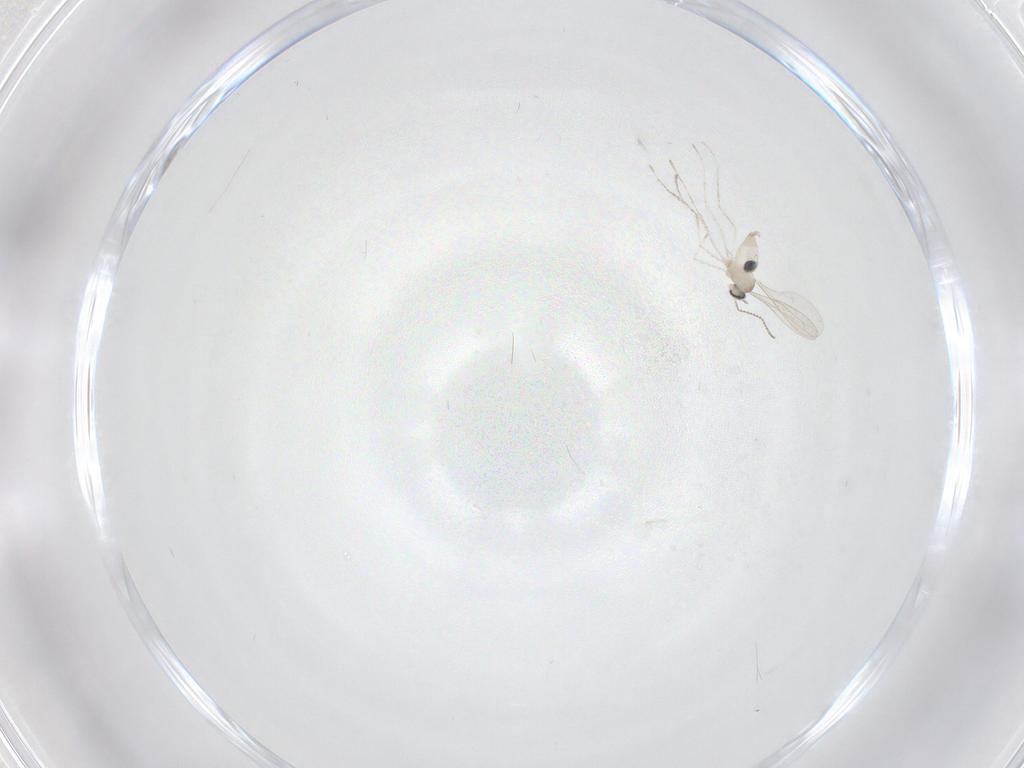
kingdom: Animalia
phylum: Arthropoda
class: Insecta
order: Diptera
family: Cecidomyiidae
